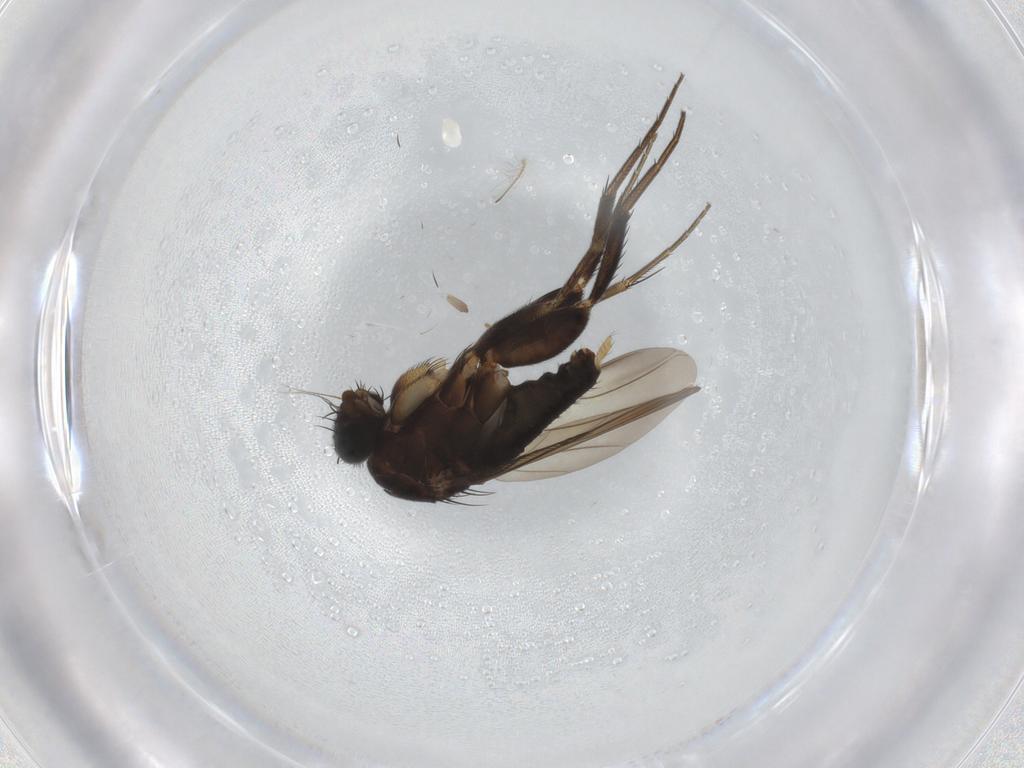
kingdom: Animalia
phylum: Arthropoda
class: Insecta
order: Diptera
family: Phoridae
